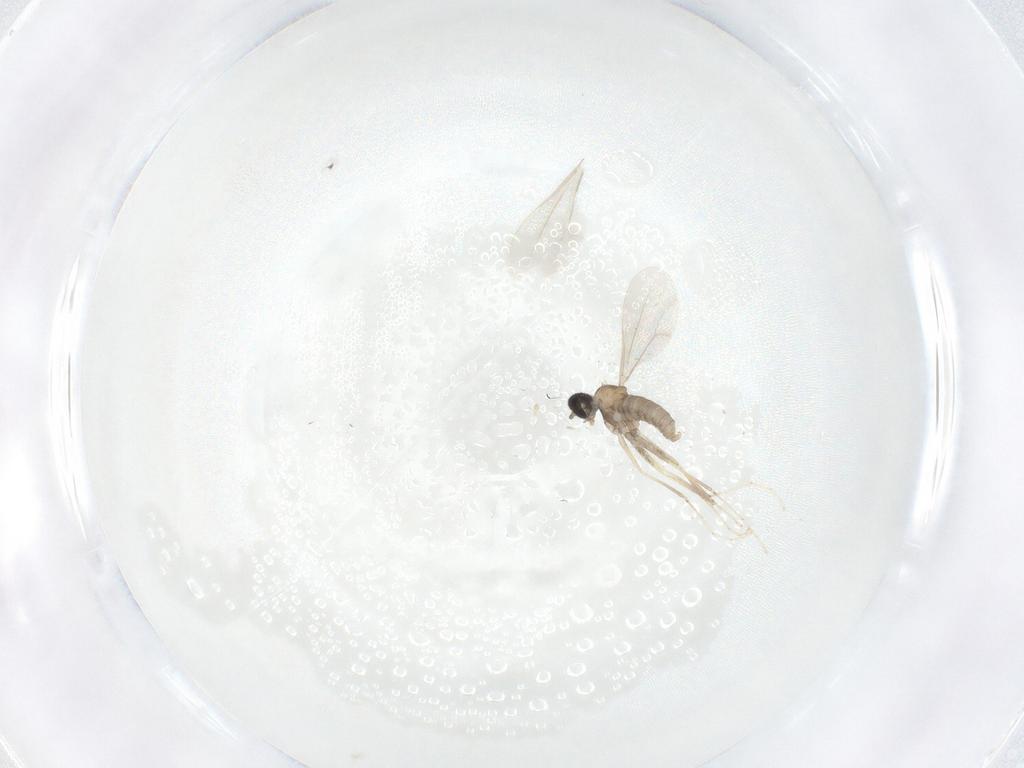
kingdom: Animalia
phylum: Arthropoda
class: Insecta
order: Diptera
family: Cecidomyiidae
